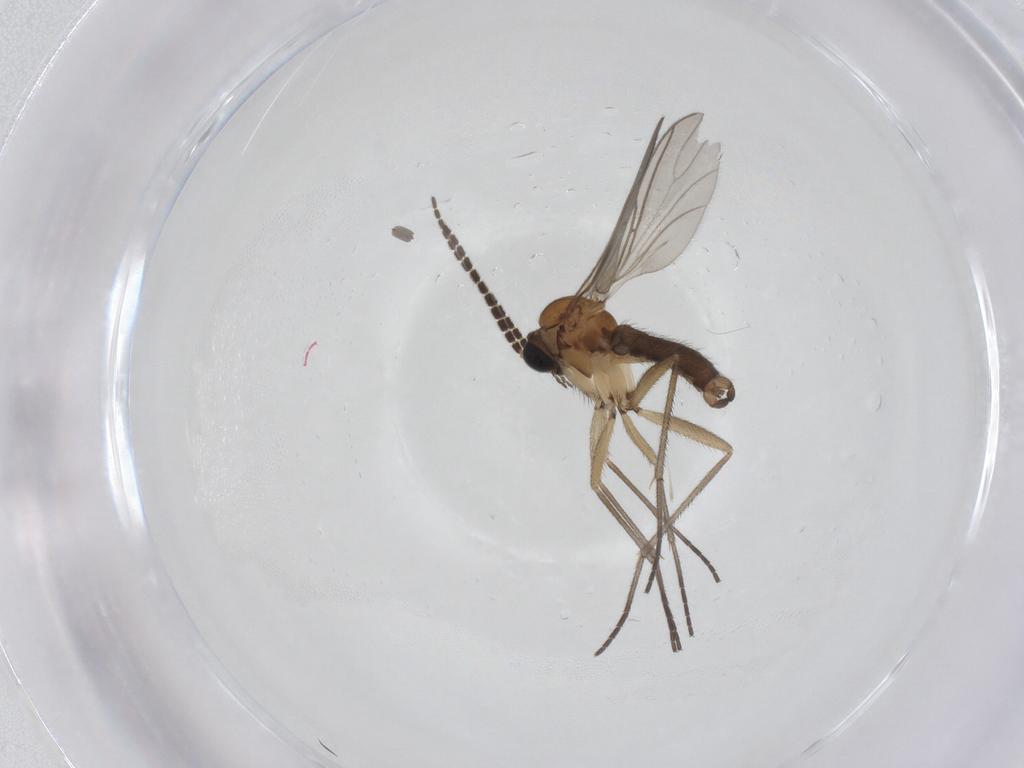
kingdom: Animalia
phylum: Arthropoda
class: Insecta
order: Diptera
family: Sciaridae
